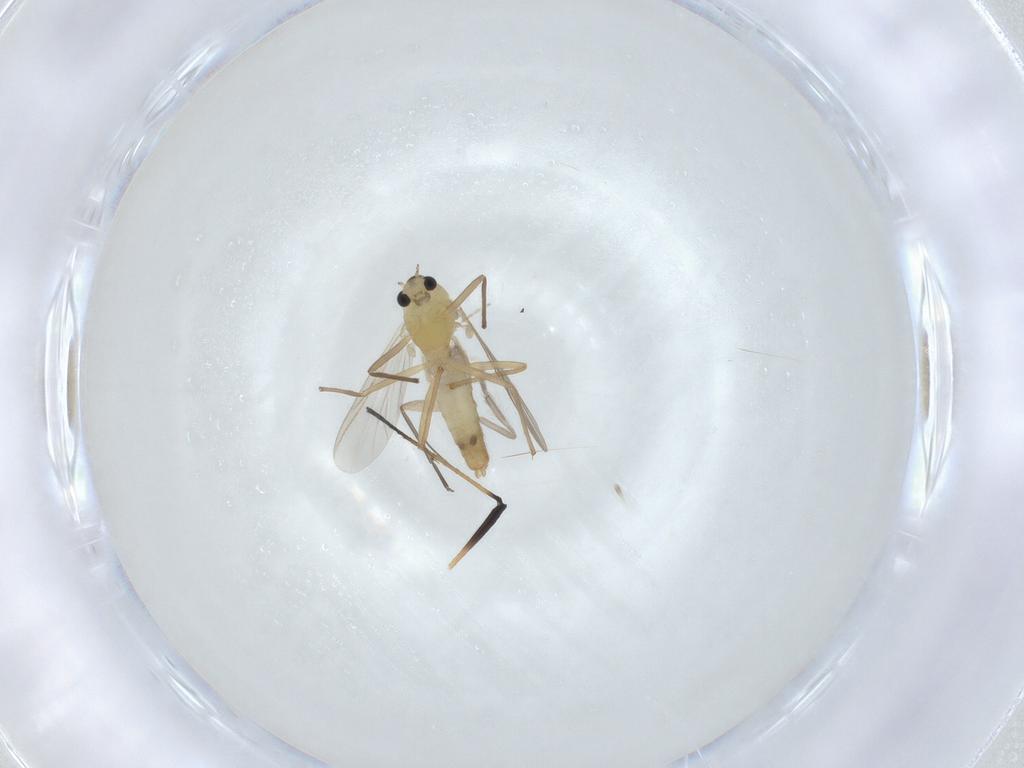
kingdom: Animalia
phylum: Arthropoda
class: Insecta
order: Diptera
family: Chironomidae
